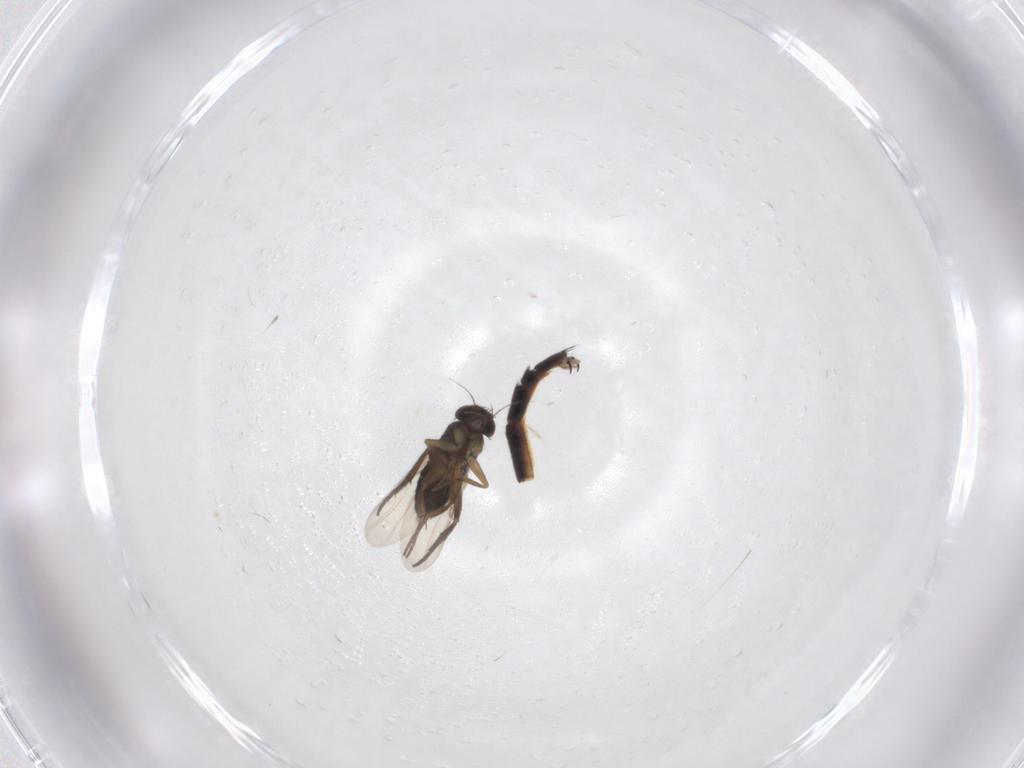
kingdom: Animalia
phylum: Arthropoda
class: Insecta
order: Diptera
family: Phoridae
